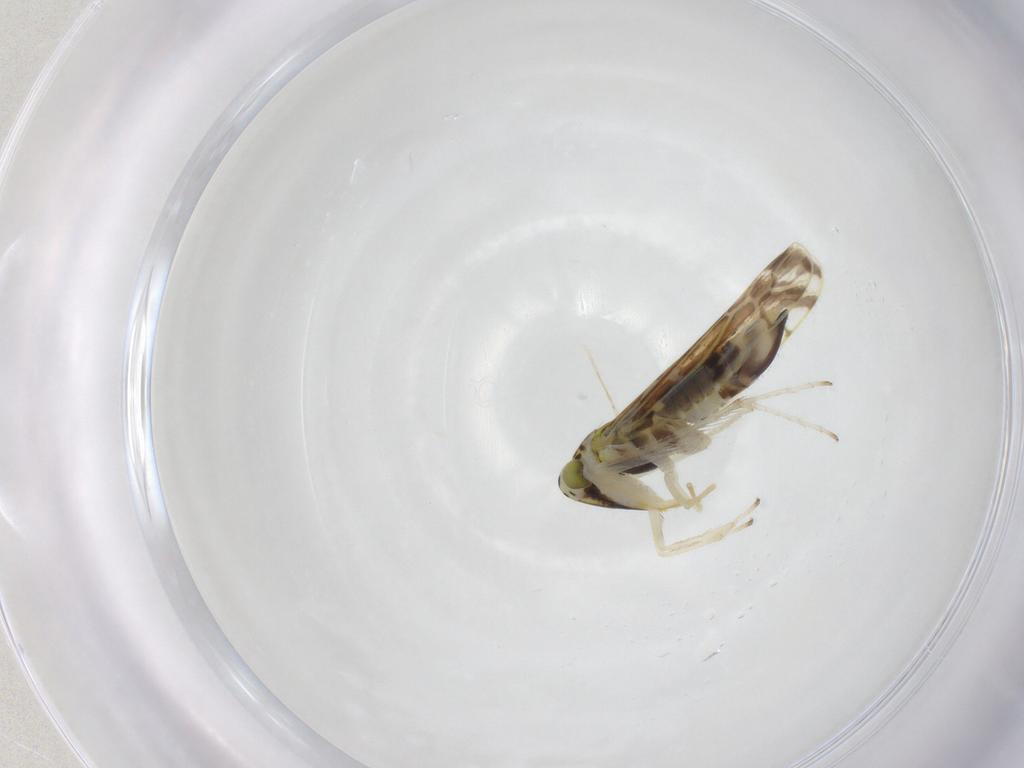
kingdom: Animalia
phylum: Arthropoda
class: Insecta
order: Hemiptera
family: Cicadellidae
